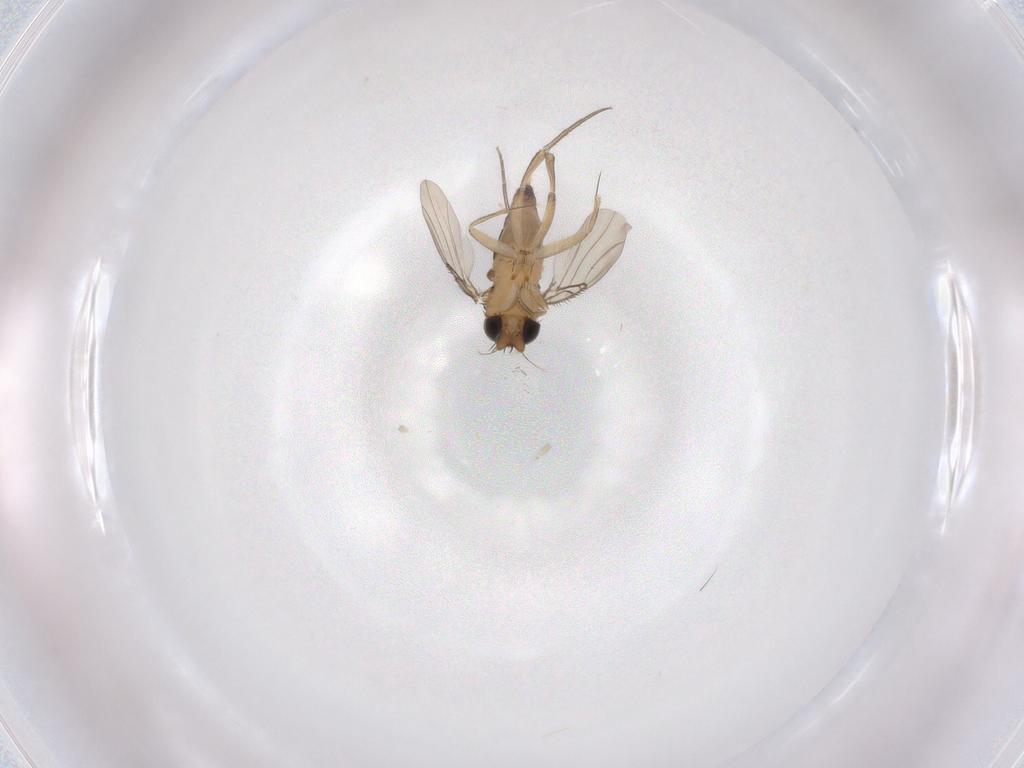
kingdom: Animalia
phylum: Arthropoda
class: Insecta
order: Diptera
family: Phoridae
